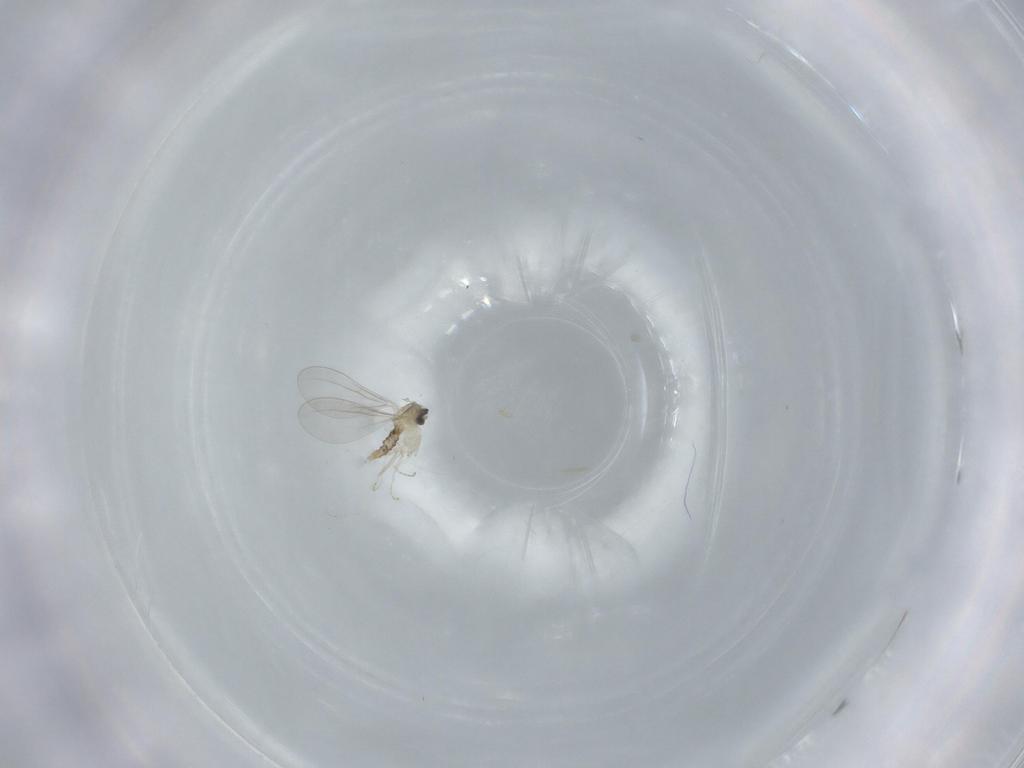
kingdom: Animalia
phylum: Arthropoda
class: Insecta
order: Diptera
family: Cecidomyiidae
